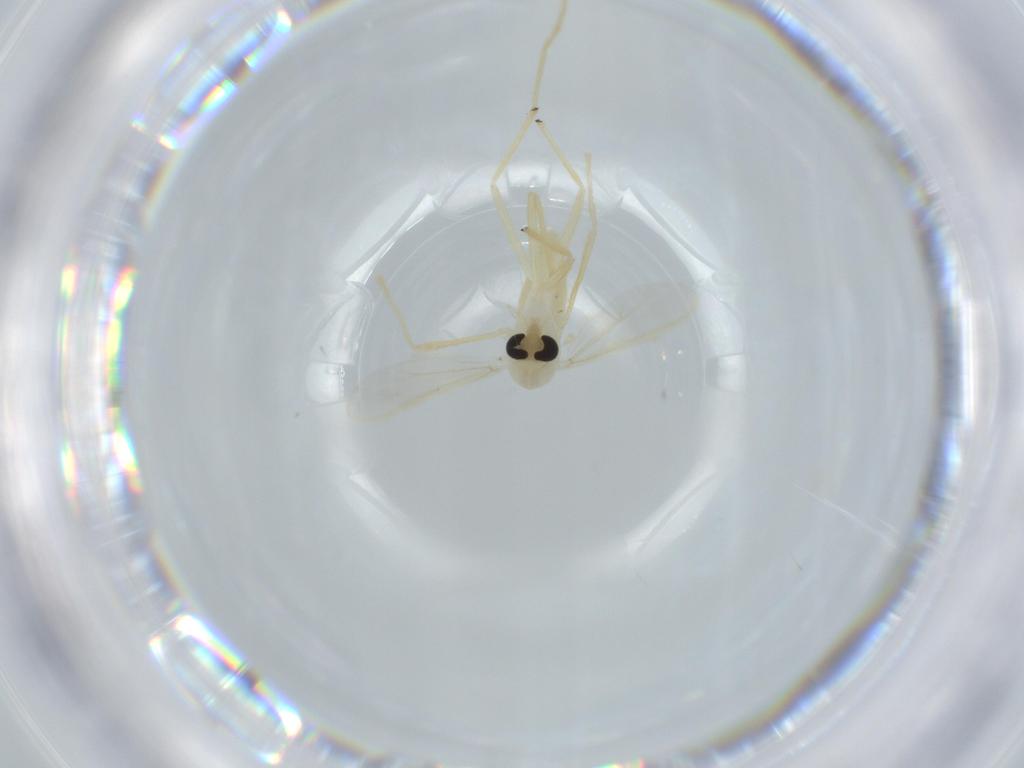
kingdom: Animalia
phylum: Arthropoda
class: Insecta
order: Diptera
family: Chironomidae
